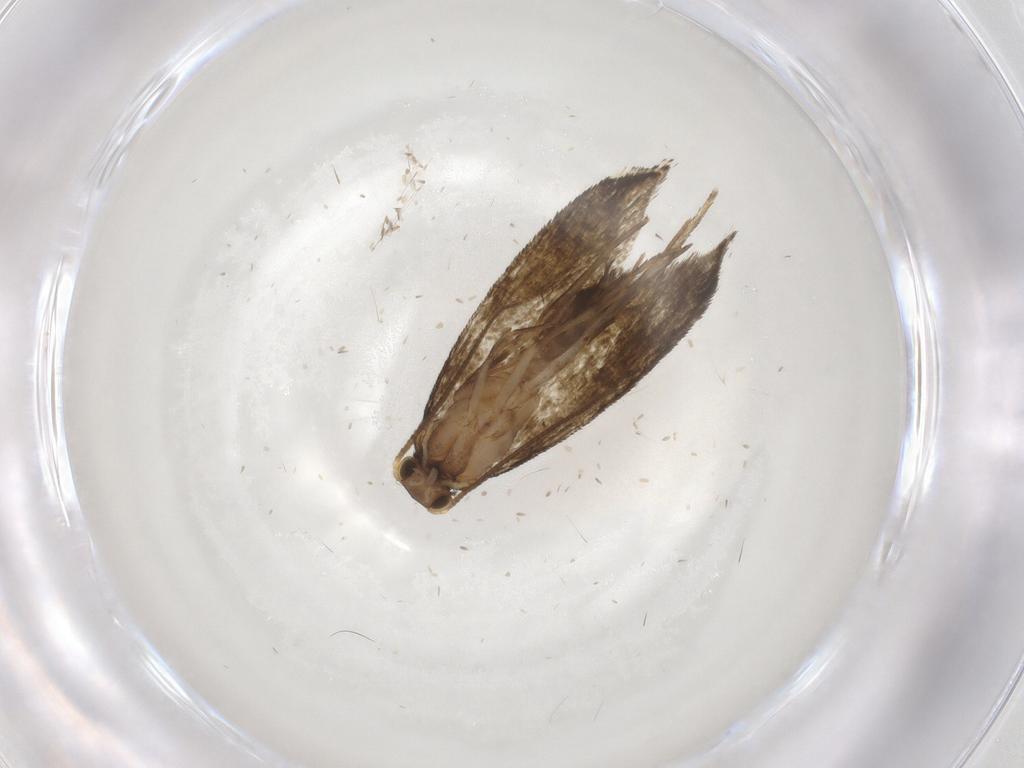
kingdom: Animalia
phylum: Arthropoda
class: Insecta
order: Lepidoptera
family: Tineidae
